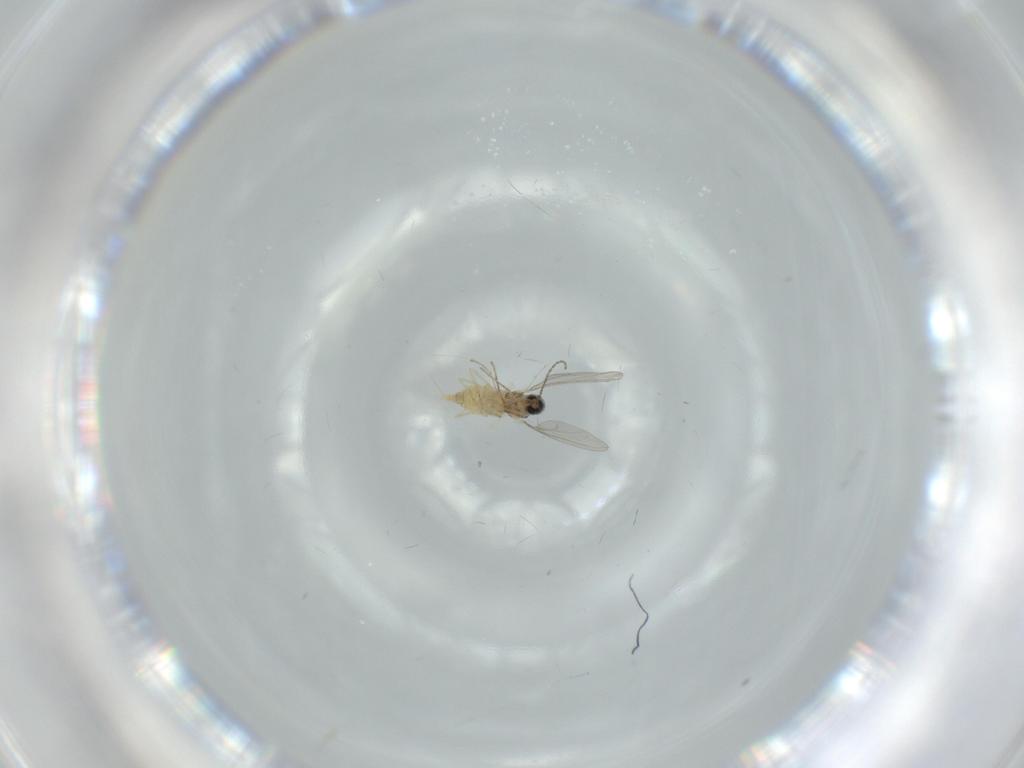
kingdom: Animalia
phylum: Arthropoda
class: Insecta
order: Diptera
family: Cecidomyiidae
